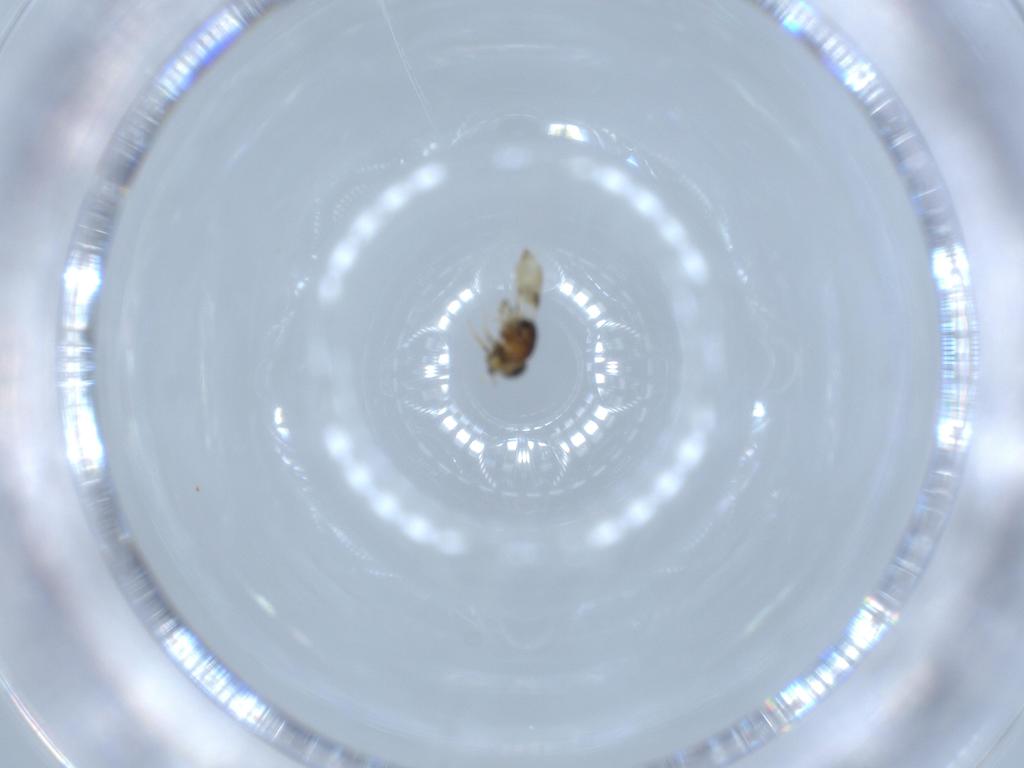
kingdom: Animalia
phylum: Arthropoda
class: Insecta
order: Hymenoptera
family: Scelionidae
